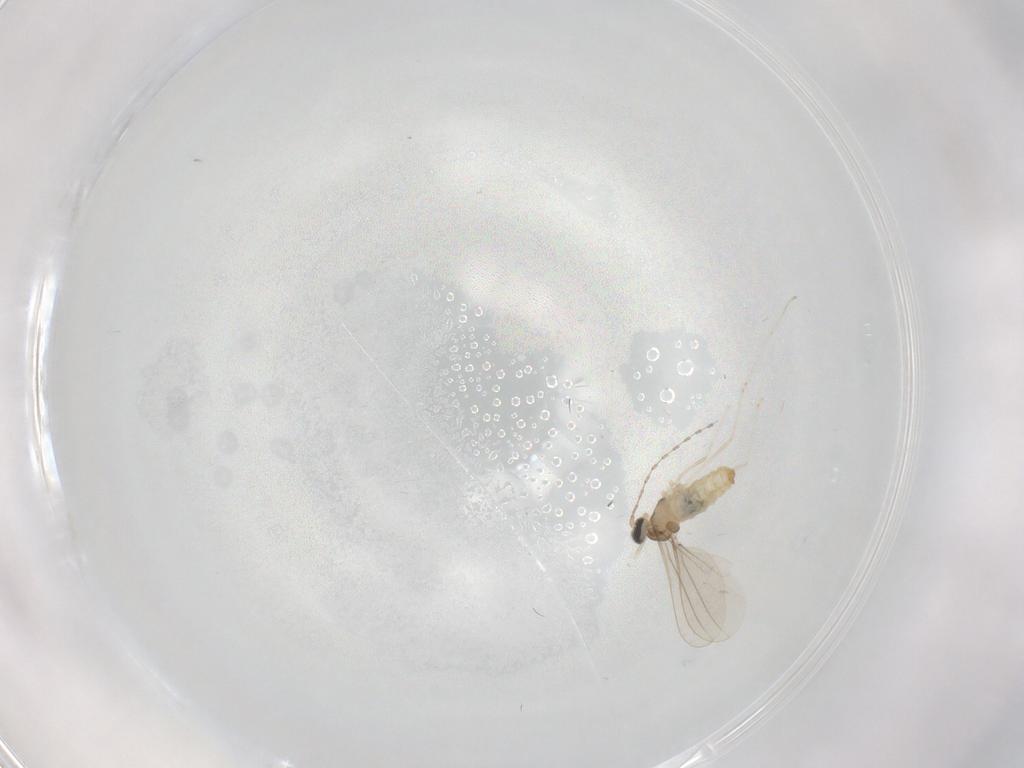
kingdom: Animalia
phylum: Arthropoda
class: Insecta
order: Diptera
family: Cecidomyiidae
